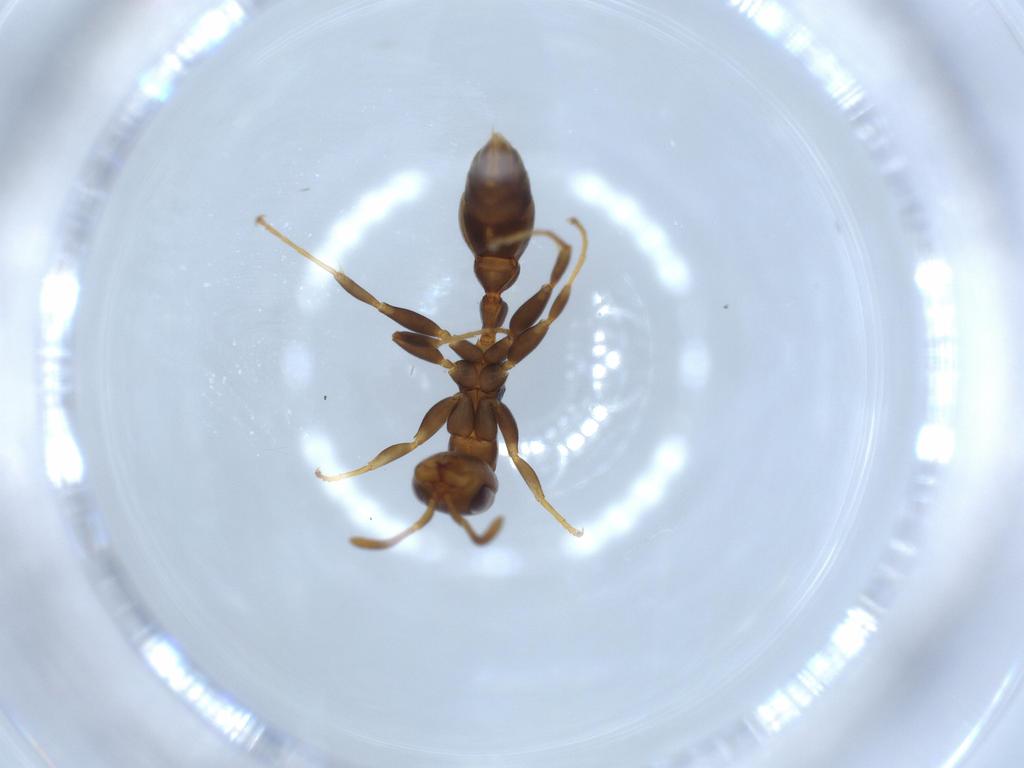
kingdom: Animalia
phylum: Arthropoda
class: Insecta
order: Hymenoptera
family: Formicidae
